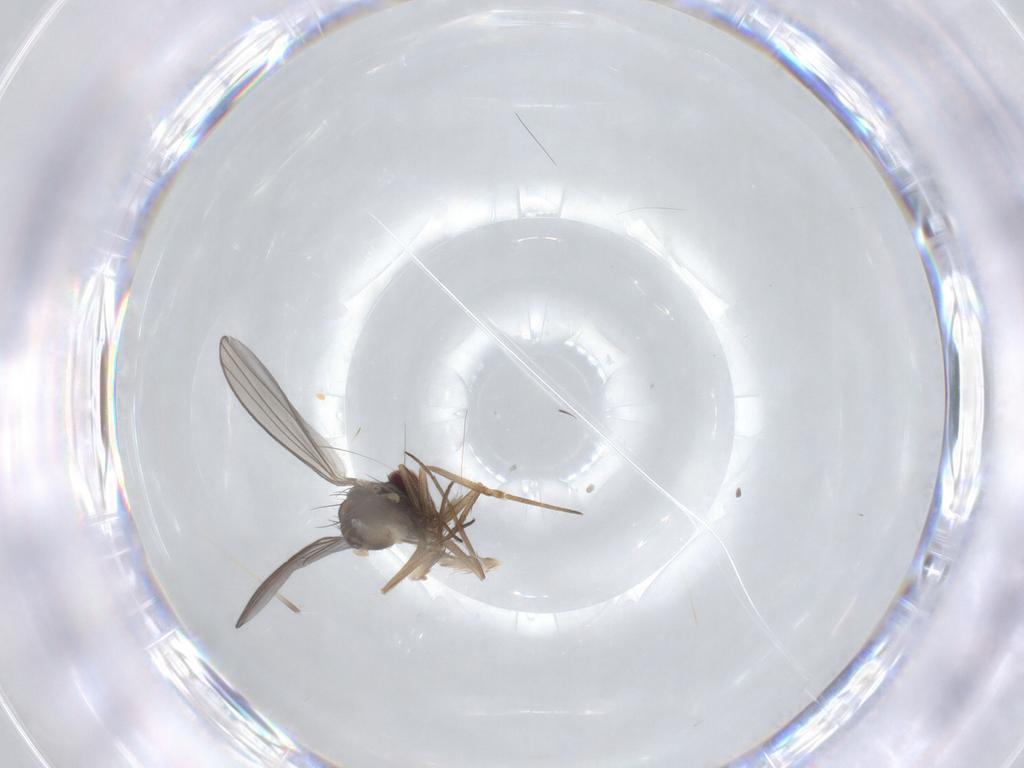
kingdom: Animalia
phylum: Arthropoda
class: Insecta
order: Diptera
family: Dolichopodidae
